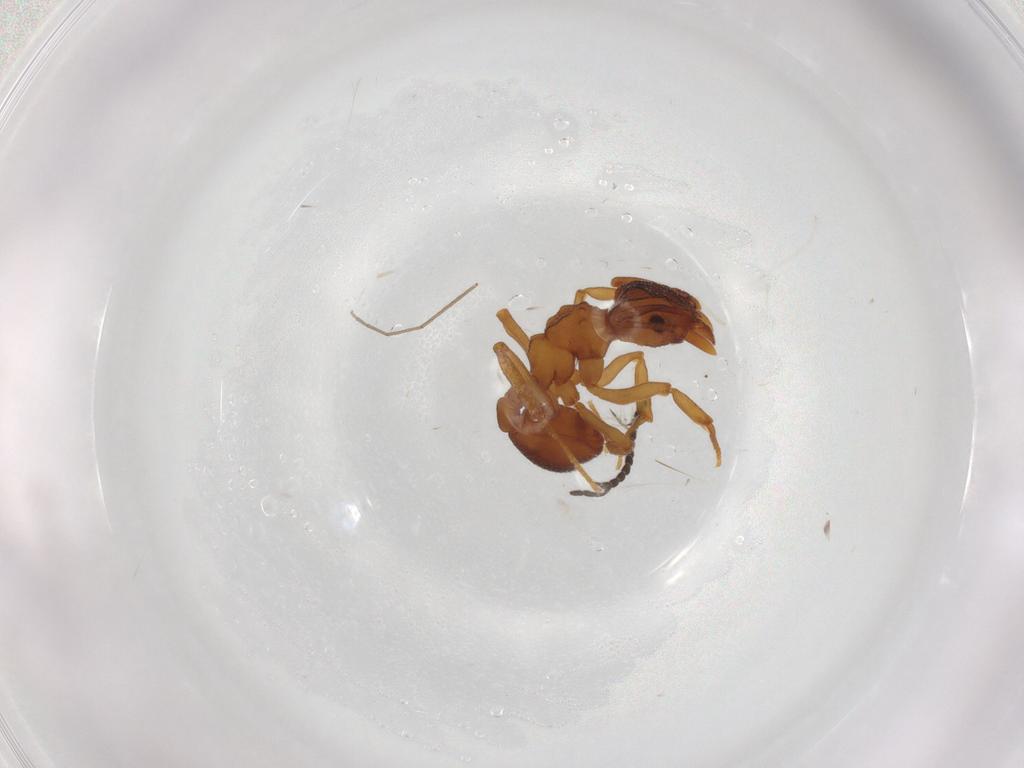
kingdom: Animalia
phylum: Arthropoda
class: Insecta
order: Hymenoptera
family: Formicidae
